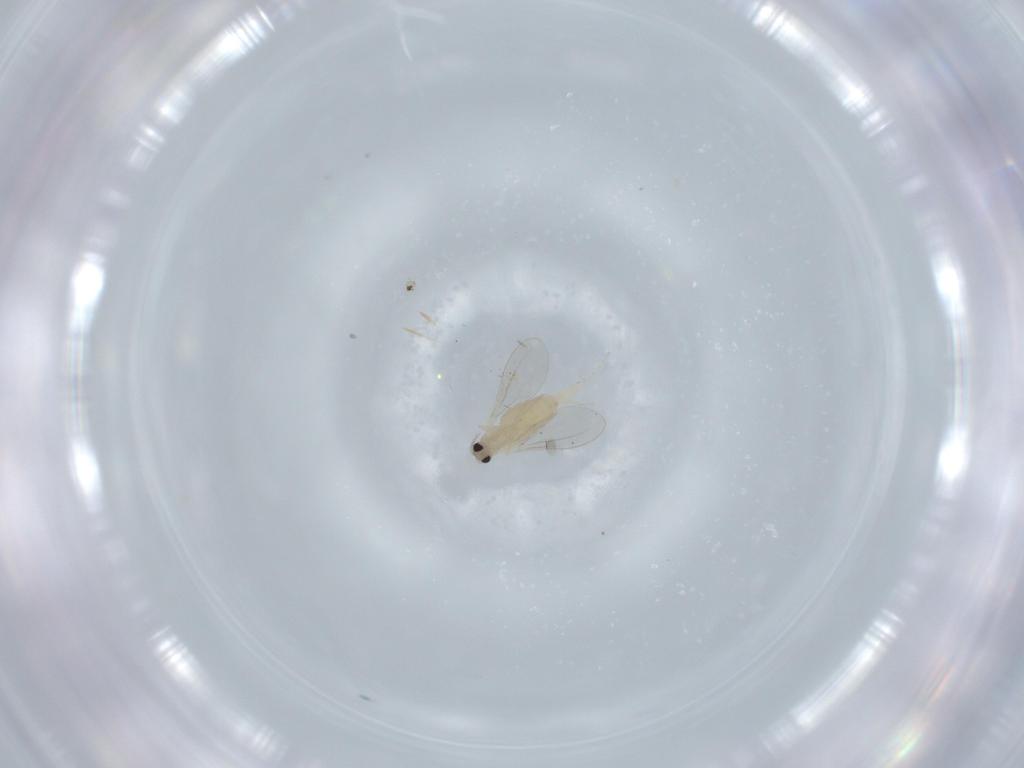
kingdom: Animalia
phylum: Arthropoda
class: Insecta
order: Diptera
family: Cecidomyiidae
